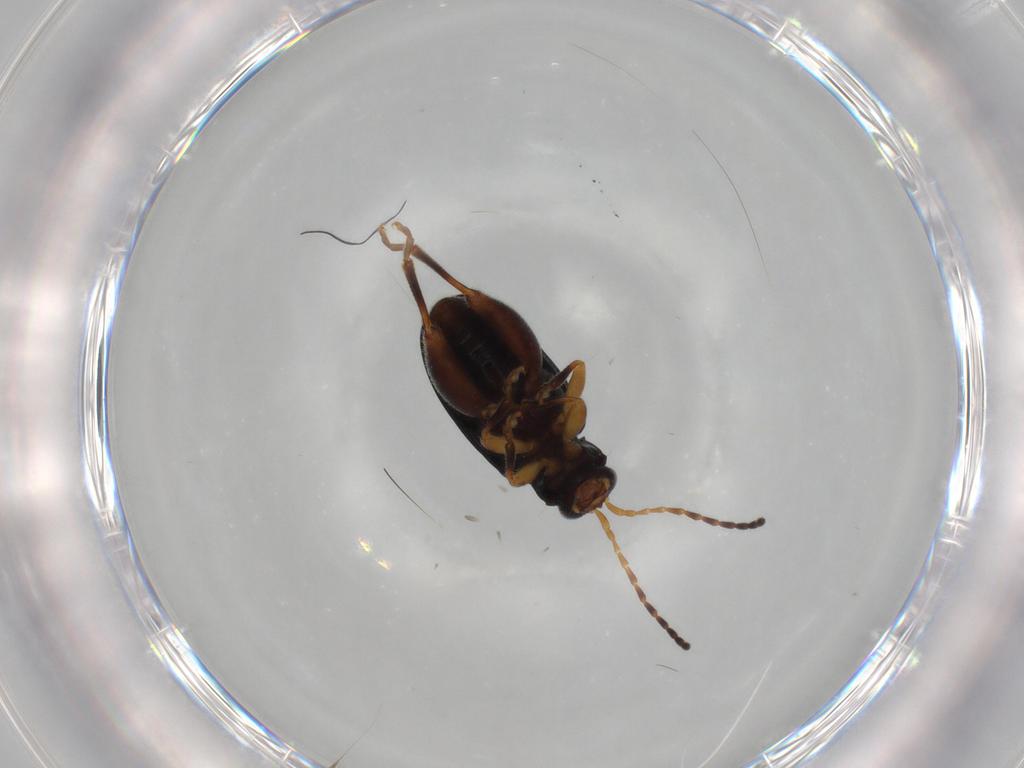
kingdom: Animalia
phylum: Arthropoda
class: Insecta
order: Coleoptera
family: Chrysomelidae
